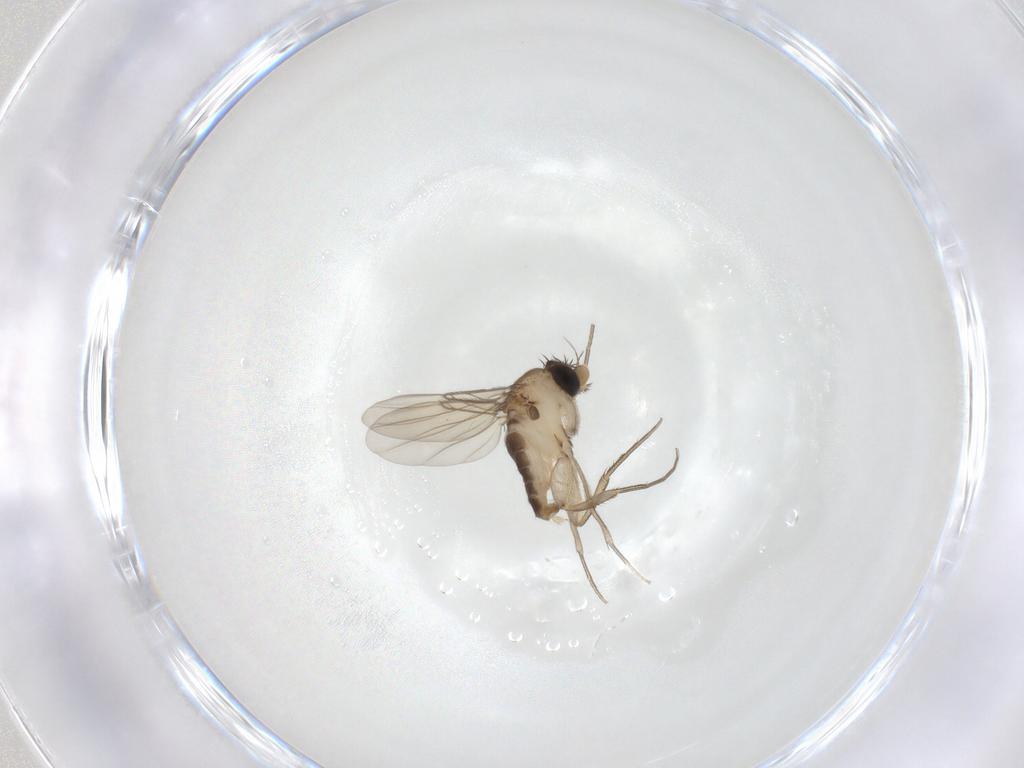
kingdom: Animalia
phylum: Arthropoda
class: Insecta
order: Diptera
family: Phoridae
